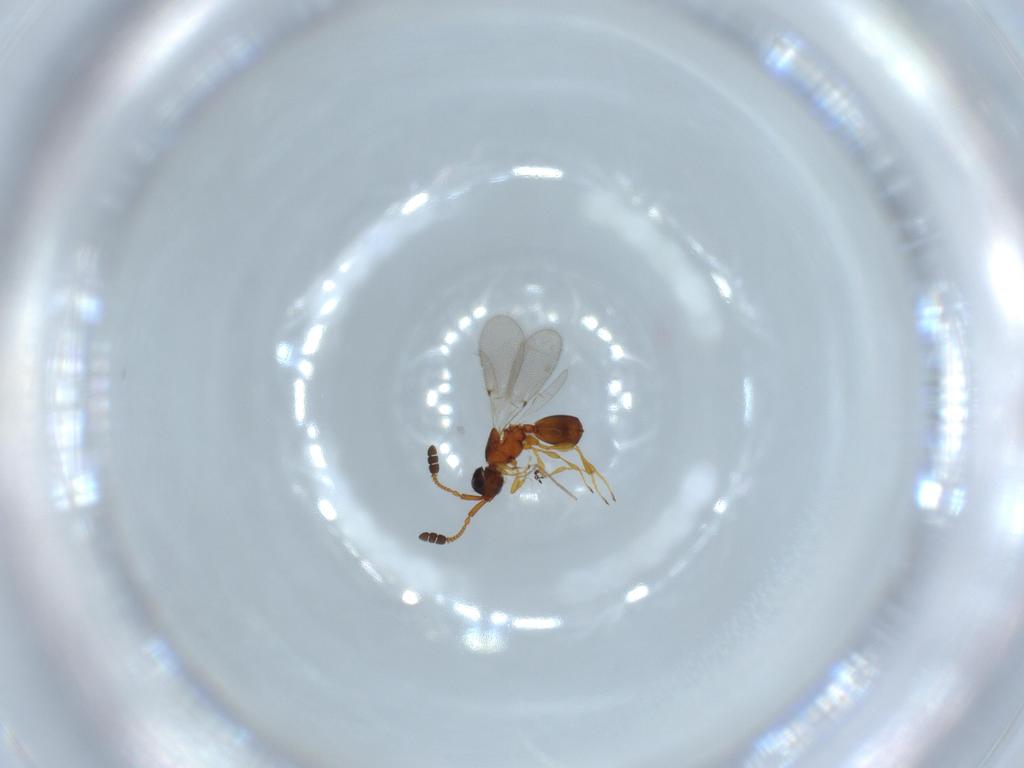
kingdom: Animalia
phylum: Arthropoda
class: Insecta
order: Hymenoptera
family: Diapriidae
